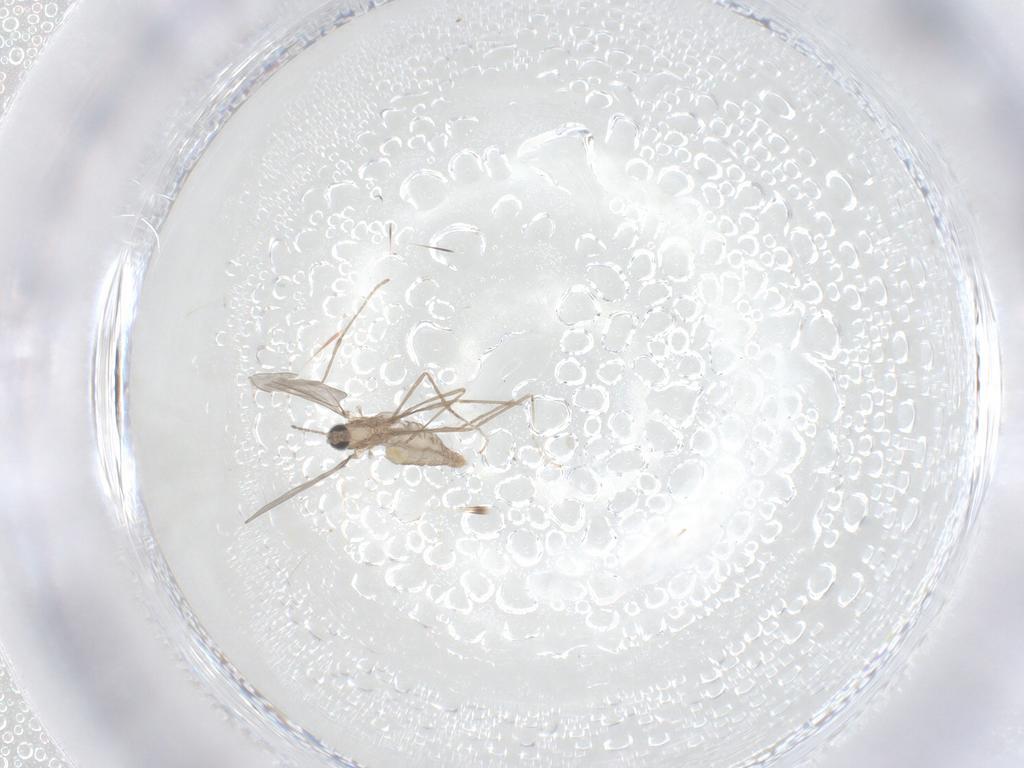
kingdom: Animalia
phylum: Arthropoda
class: Insecta
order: Diptera
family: Cecidomyiidae
